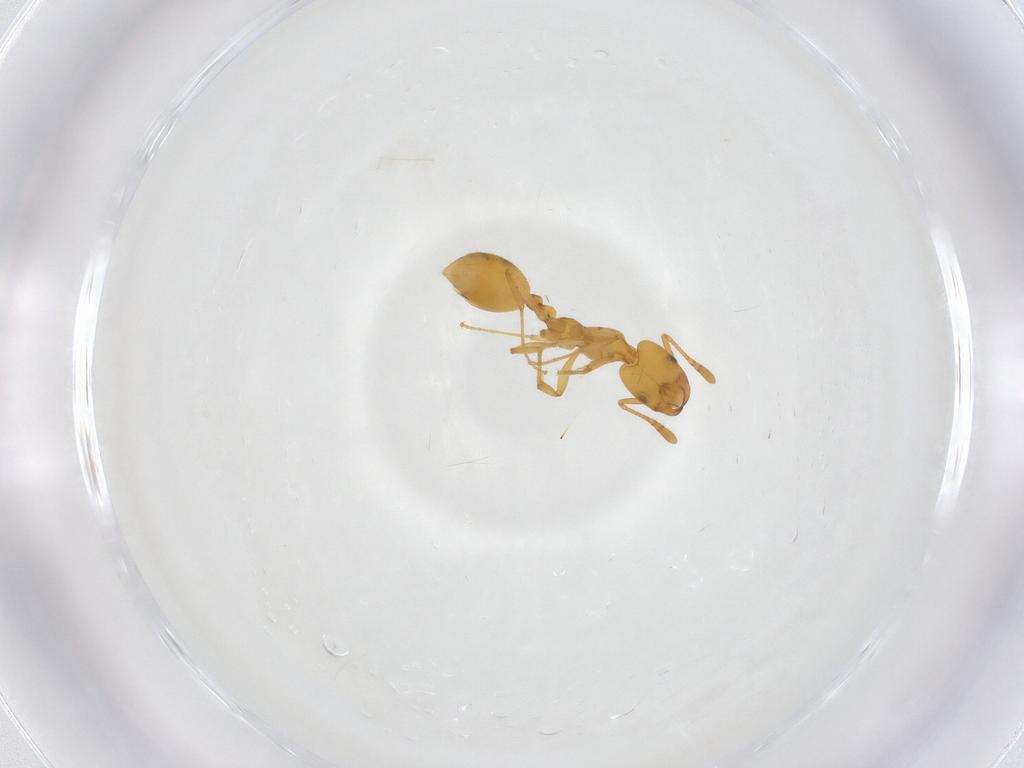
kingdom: Animalia
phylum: Arthropoda
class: Insecta
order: Hymenoptera
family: Formicidae
